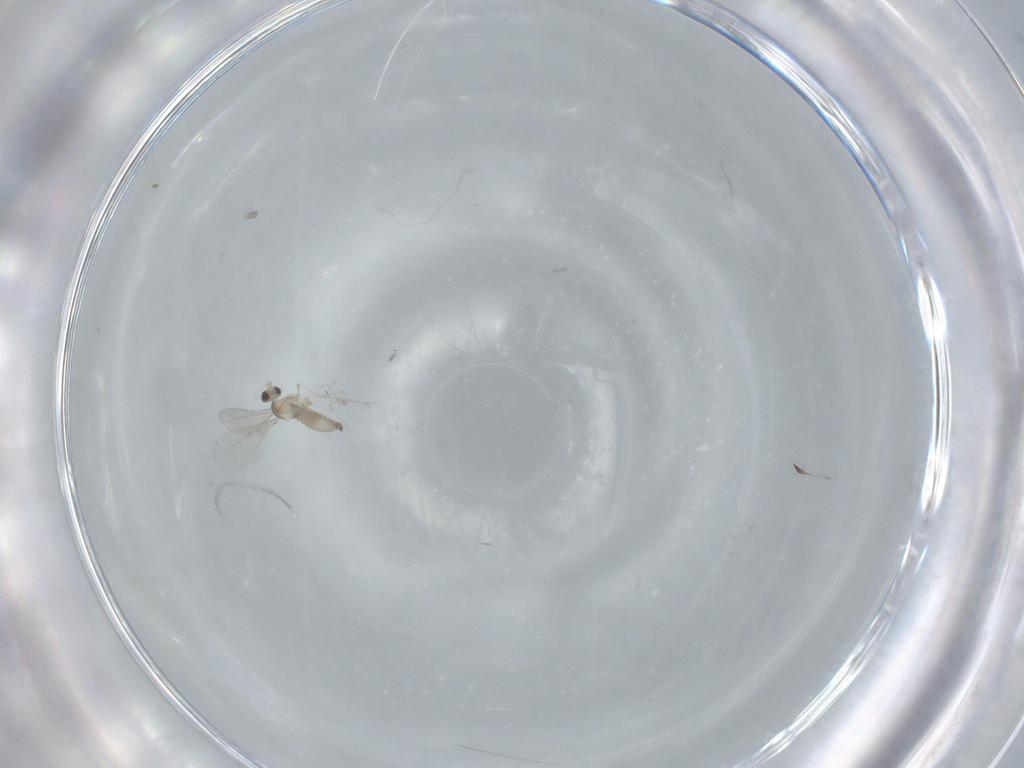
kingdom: Animalia
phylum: Arthropoda
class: Insecta
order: Diptera
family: Cecidomyiidae
